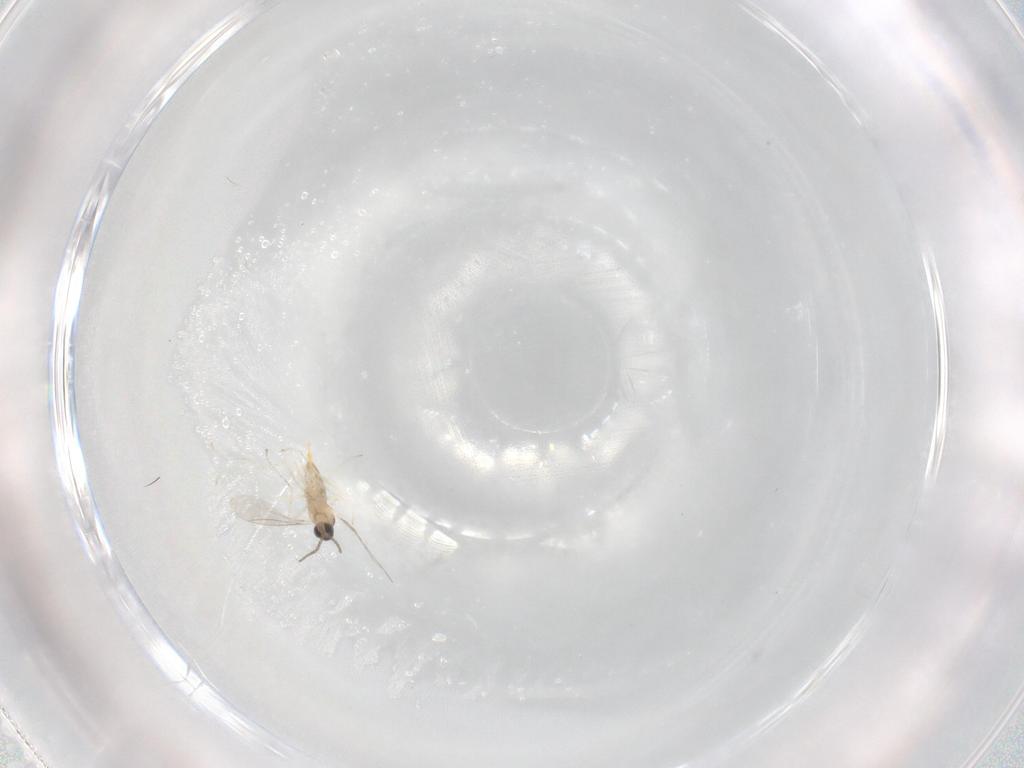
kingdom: Animalia
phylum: Arthropoda
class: Insecta
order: Diptera
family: Cecidomyiidae
